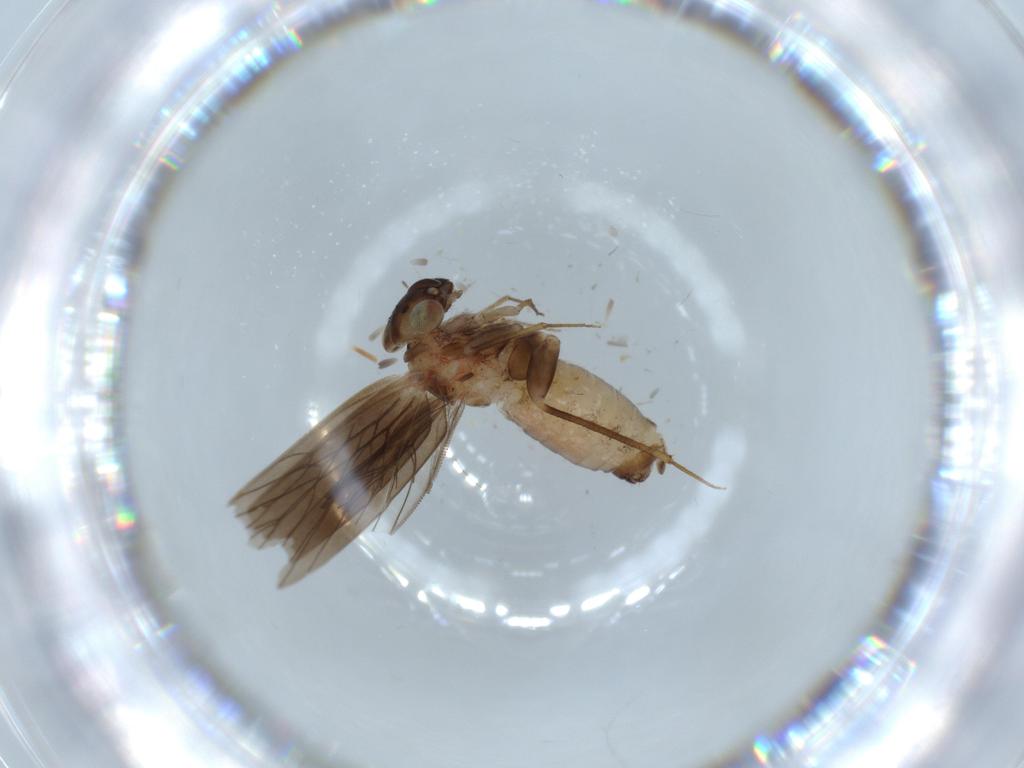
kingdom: Animalia
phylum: Arthropoda
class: Insecta
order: Psocodea
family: Lepidopsocidae
